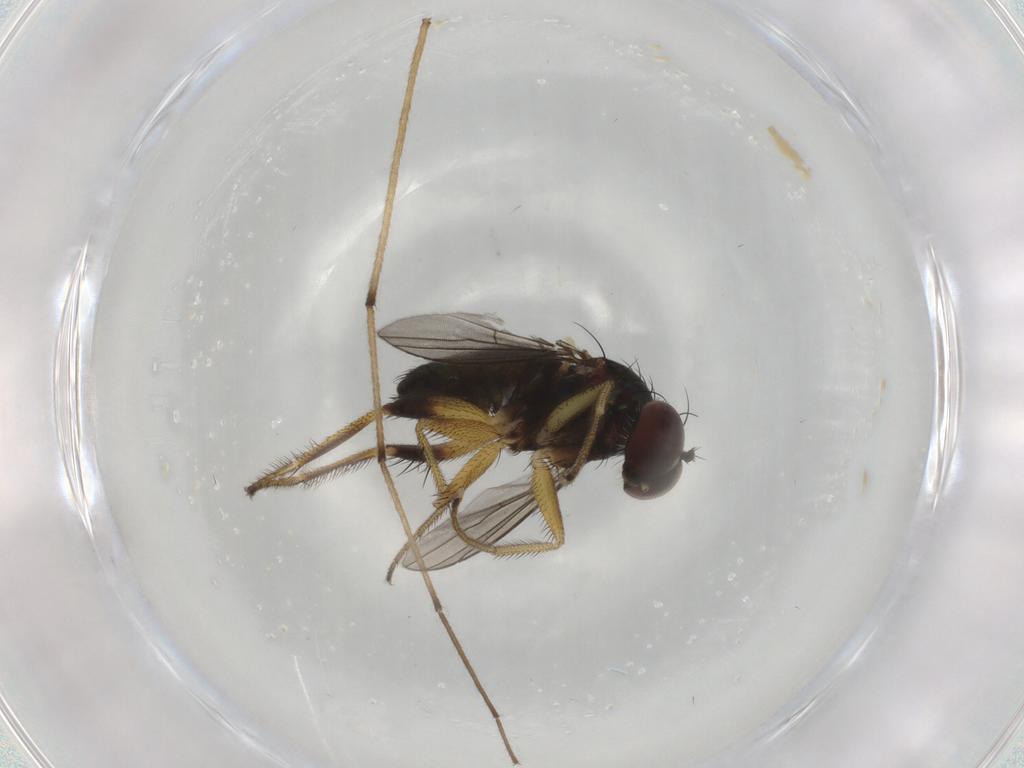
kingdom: Animalia
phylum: Arthropoda
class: Insecta
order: Diptera
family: Dolichopodidae
